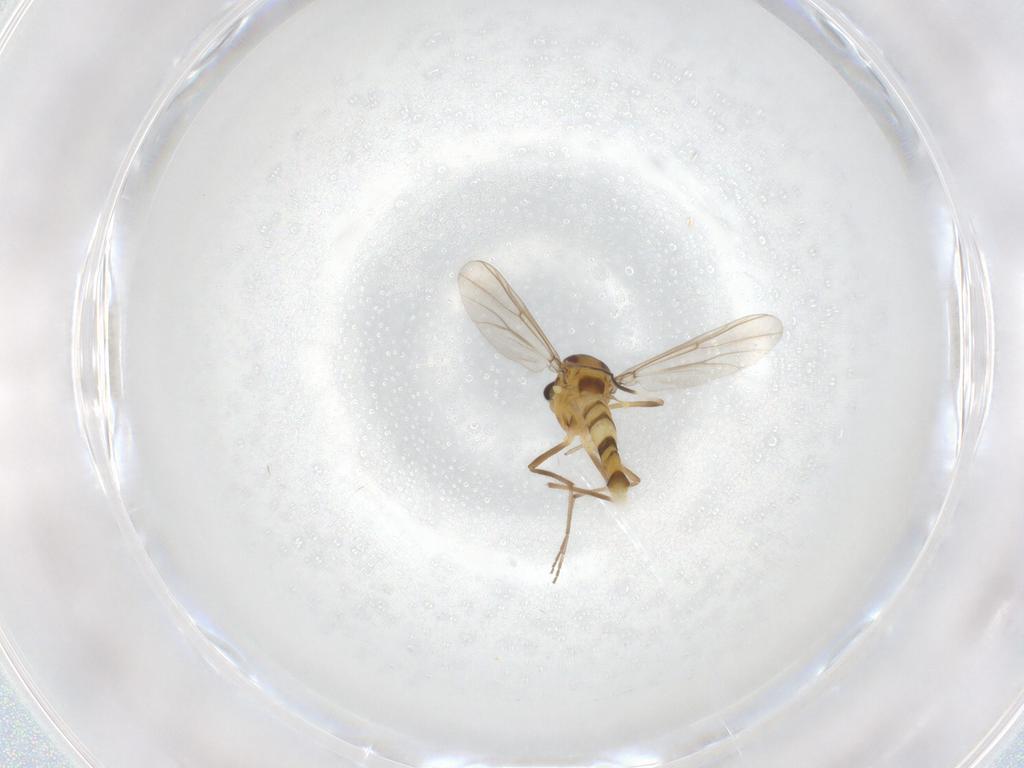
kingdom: Animalia
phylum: Arthropoda
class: Insecta
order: Diptera
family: Chironomidae
